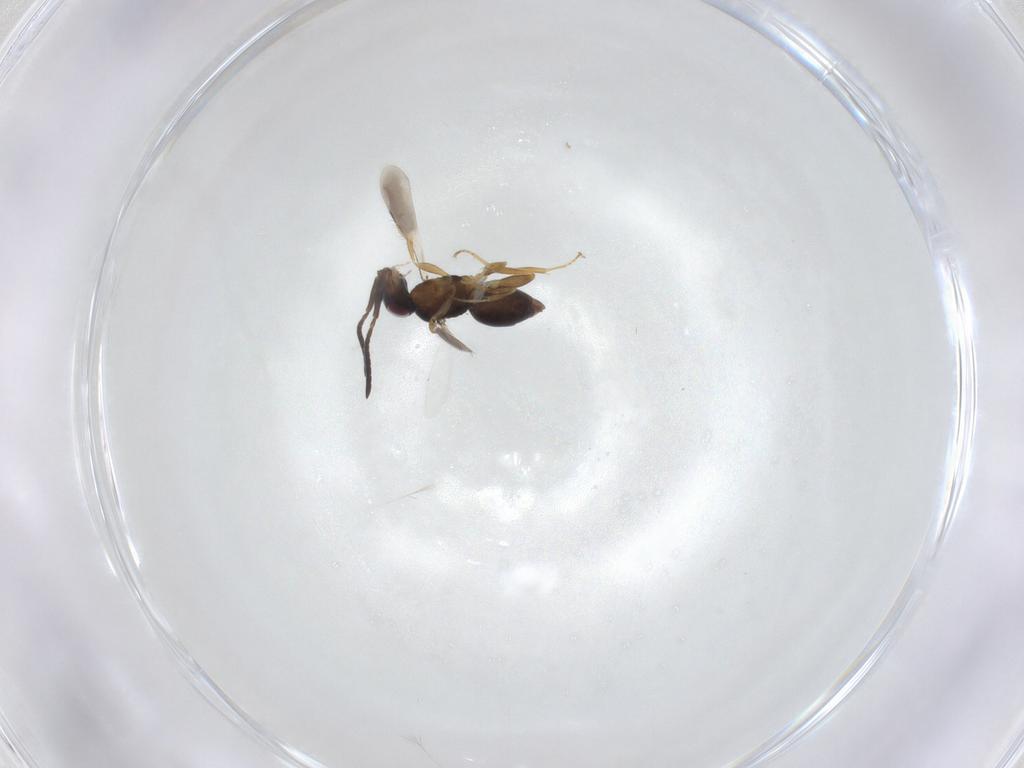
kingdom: Animalia
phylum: Arthropoda
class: Insecta
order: Hymenoptera
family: Ceraphronidae
